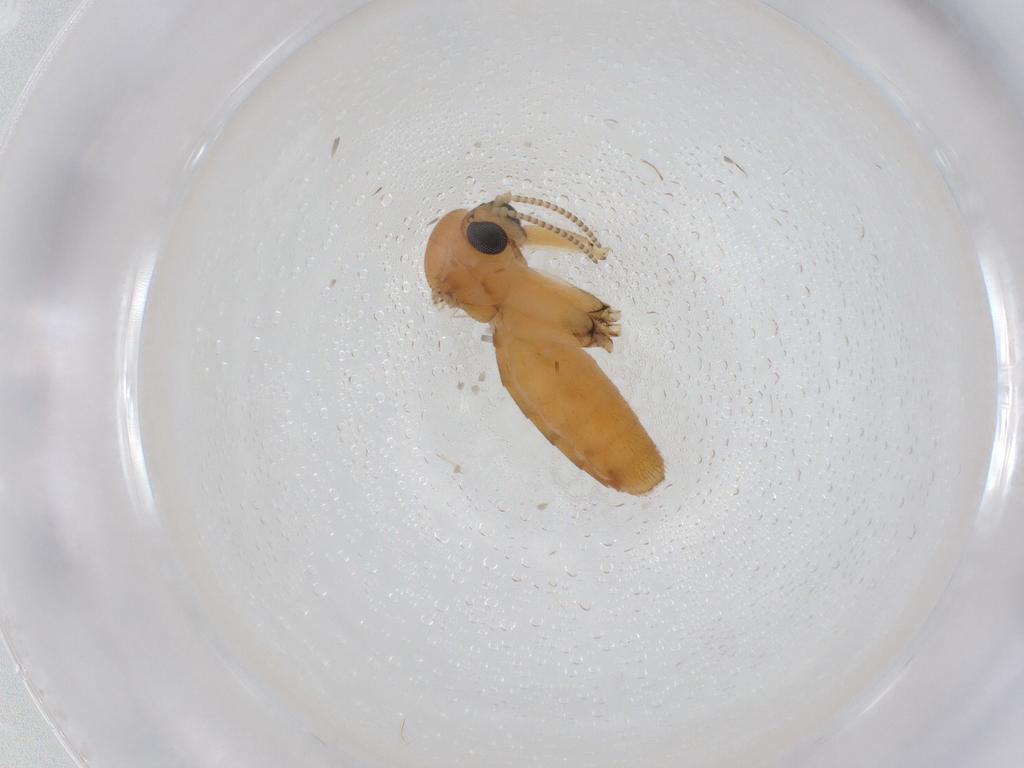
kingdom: Animalia
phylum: Arthropoda
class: Insecta
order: Diptera
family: Mycetophilidae
